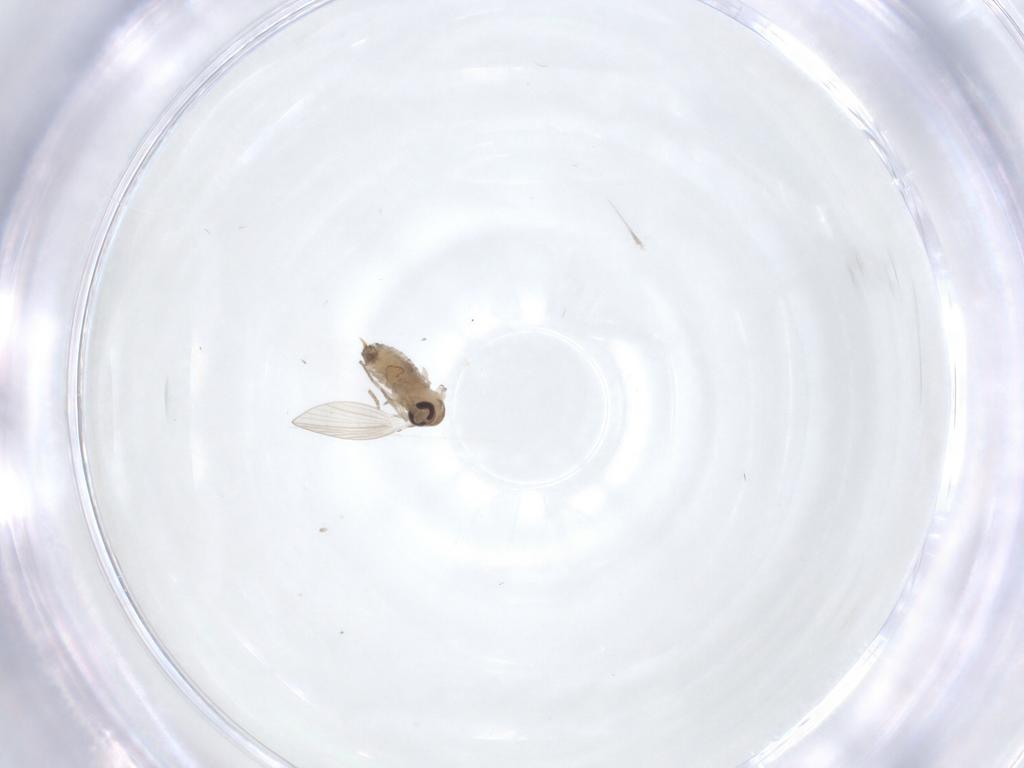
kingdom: Animalia
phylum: Arthropoda
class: Insecta
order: Diptera
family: Psychodidae
